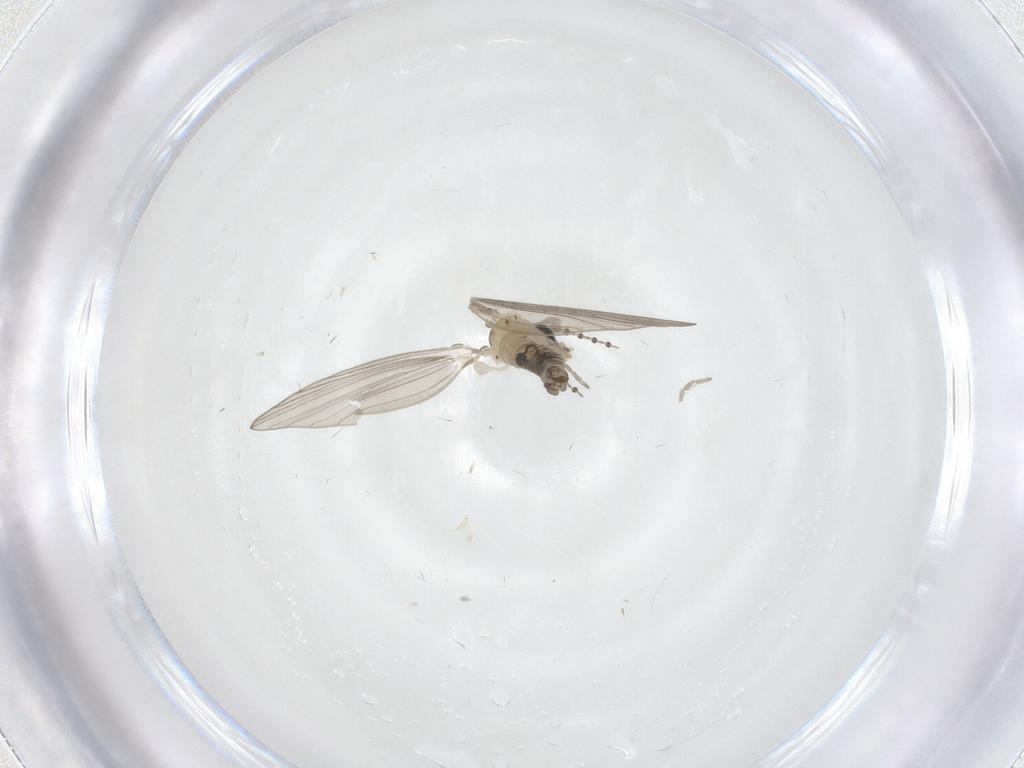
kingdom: Animalia
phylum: Arthropoda
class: Insecta
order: Diptera
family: Psychodidae
